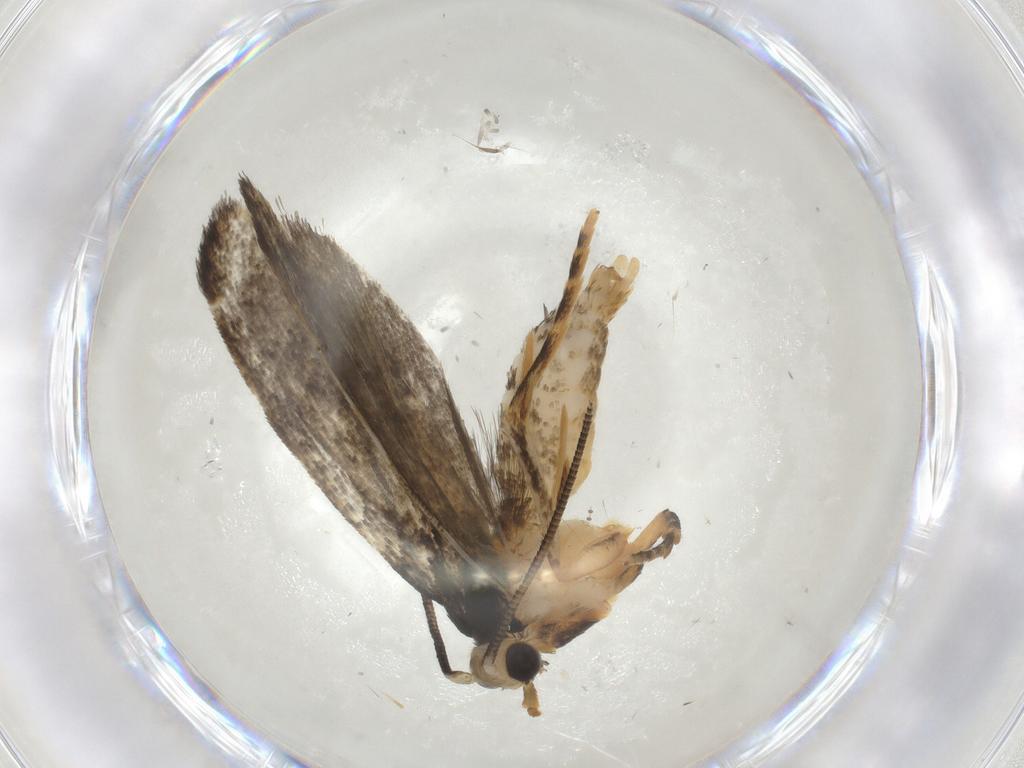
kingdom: Animalia
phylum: Arthropoda
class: Insecta
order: Lepidoptera
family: Tineidae
